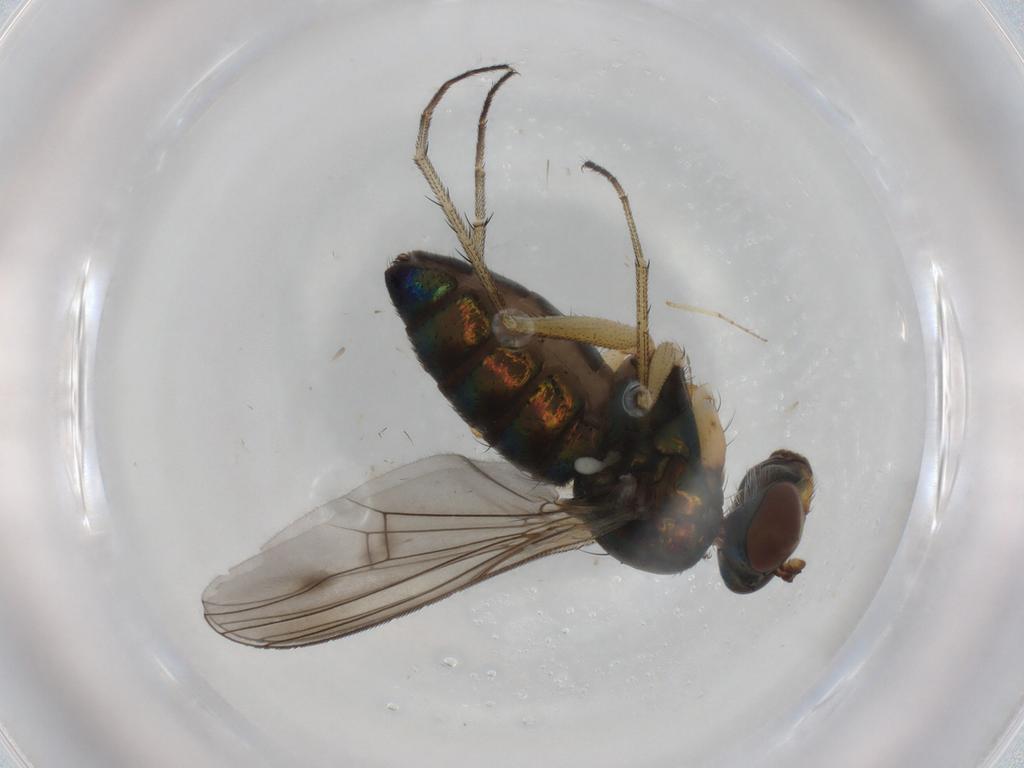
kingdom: Animalia
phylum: Arthropoda
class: Insecta
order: Diptera
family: Dolichopodidae
